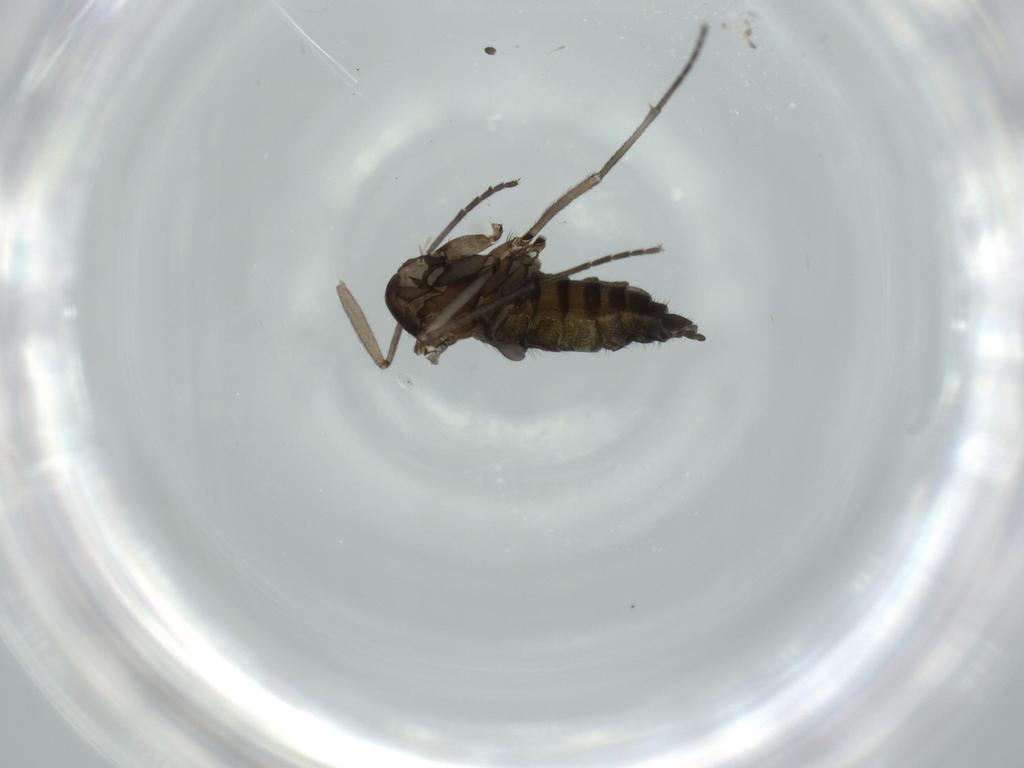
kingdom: Animalia
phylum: Arthropoda
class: Insecta
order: Diptera
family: Sciaridae
